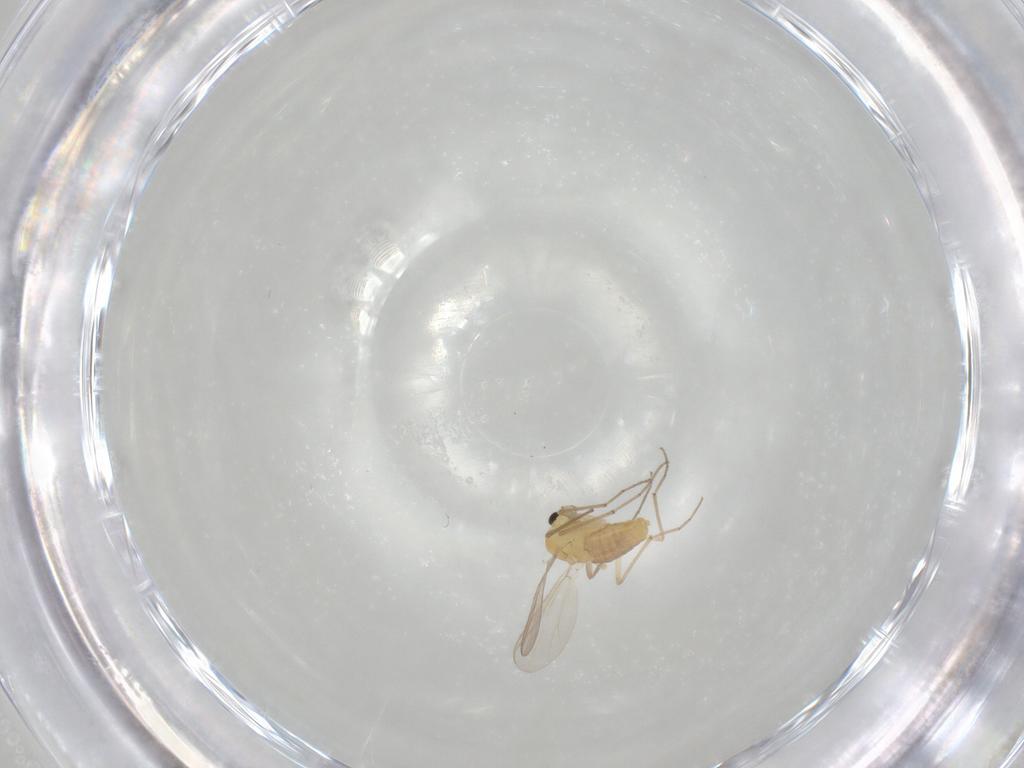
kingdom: Animalia
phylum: Arthropoda
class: Insecta
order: Diptera
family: Chironomidae
